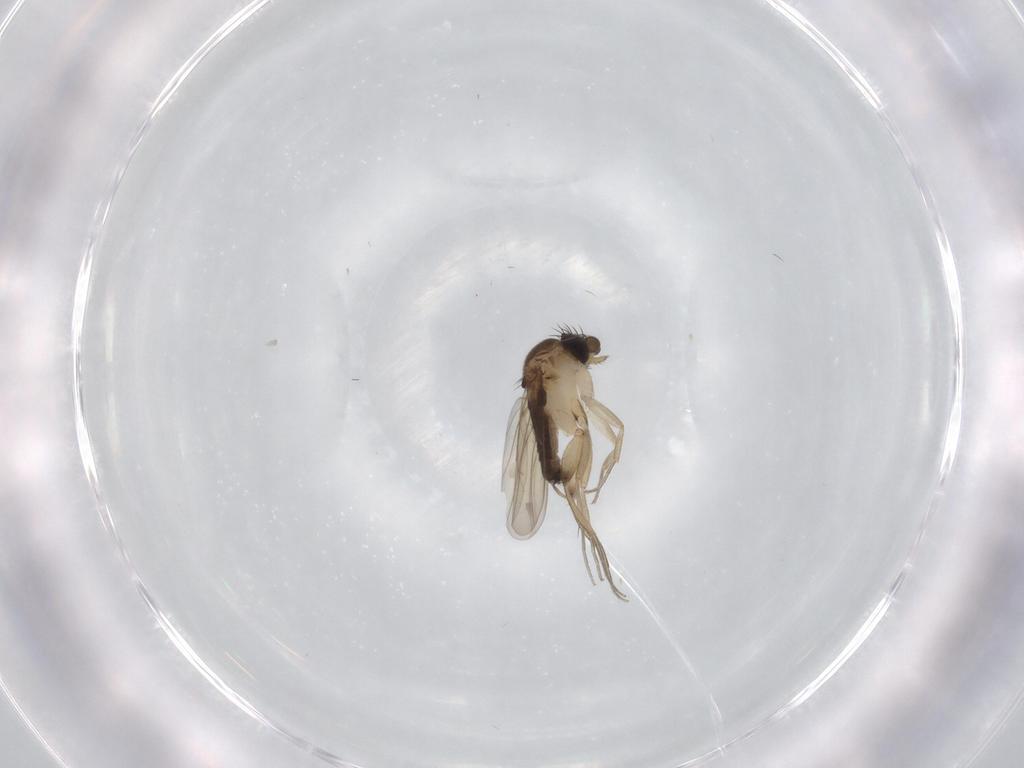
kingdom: Animalia
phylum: Arthropoda
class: Insecta
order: Diptera
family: Phoridae
